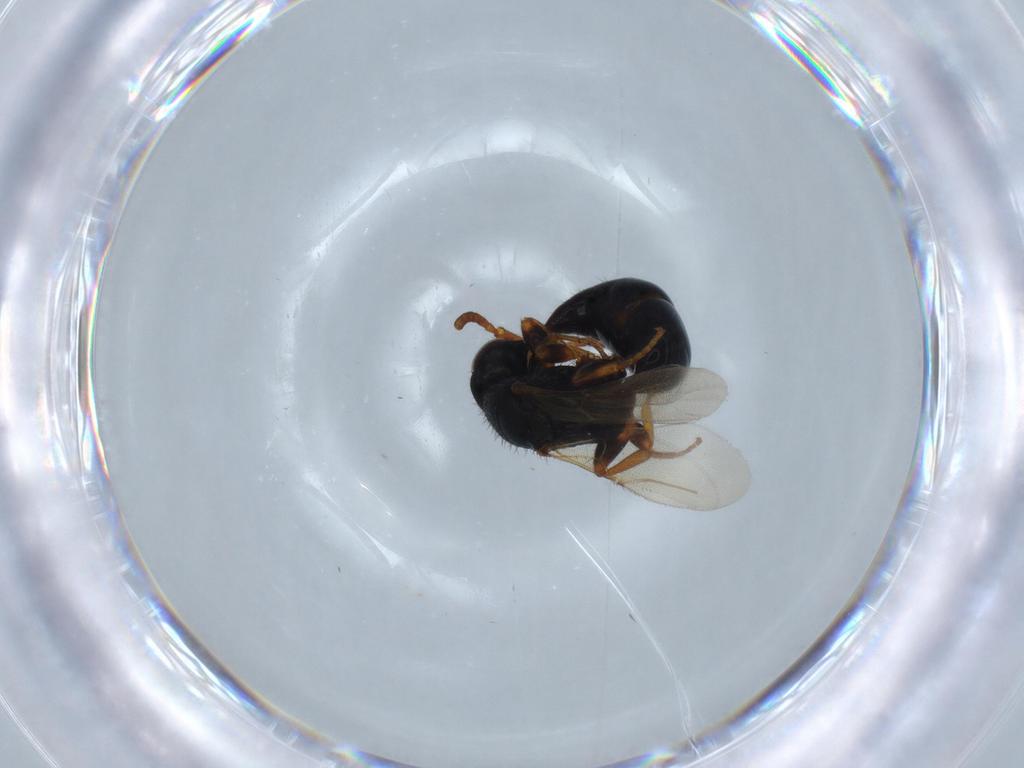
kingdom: Animalia
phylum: Arthropoda
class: Insecta
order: Hymenoptera
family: Bethylidae
